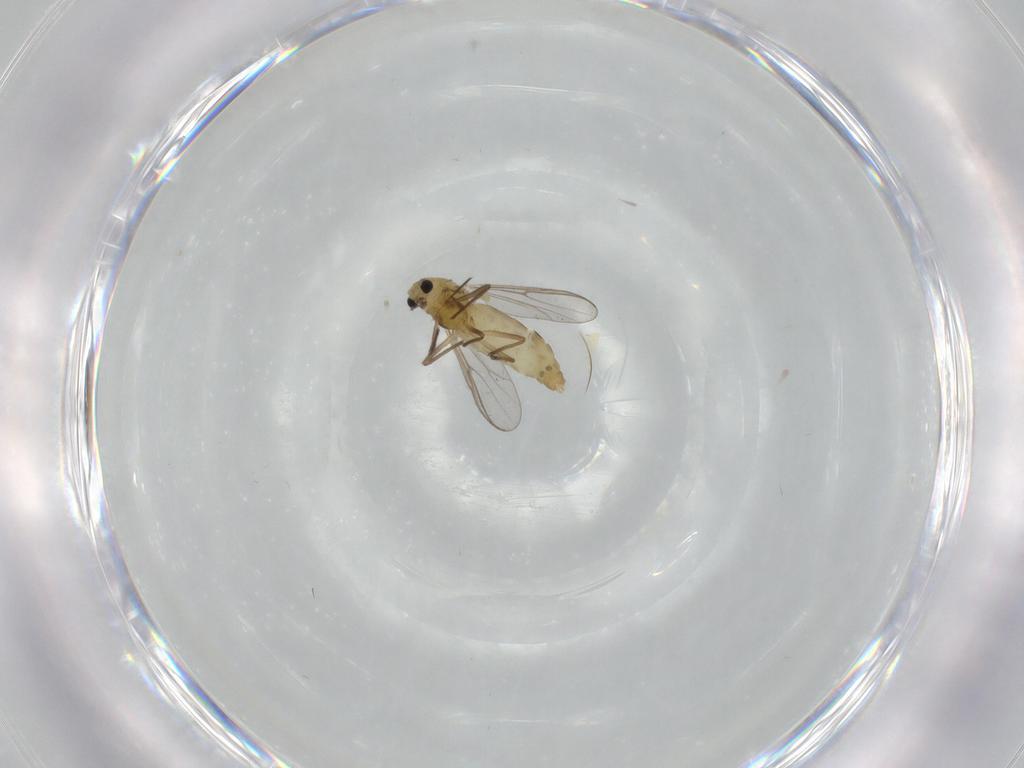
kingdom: Animalia
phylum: Arthropoda
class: Insecta
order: Diptera
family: Chironomidae
